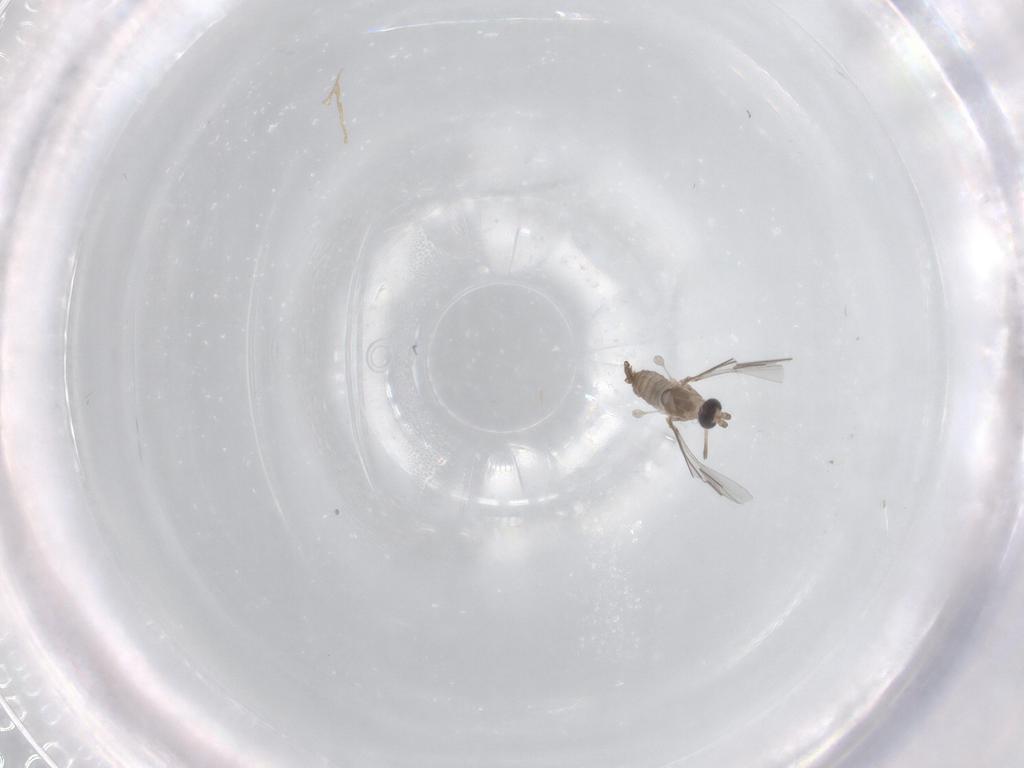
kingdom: Animalia
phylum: Arthropoda
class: Insecta
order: Diptera
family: Cecidomyiidae
